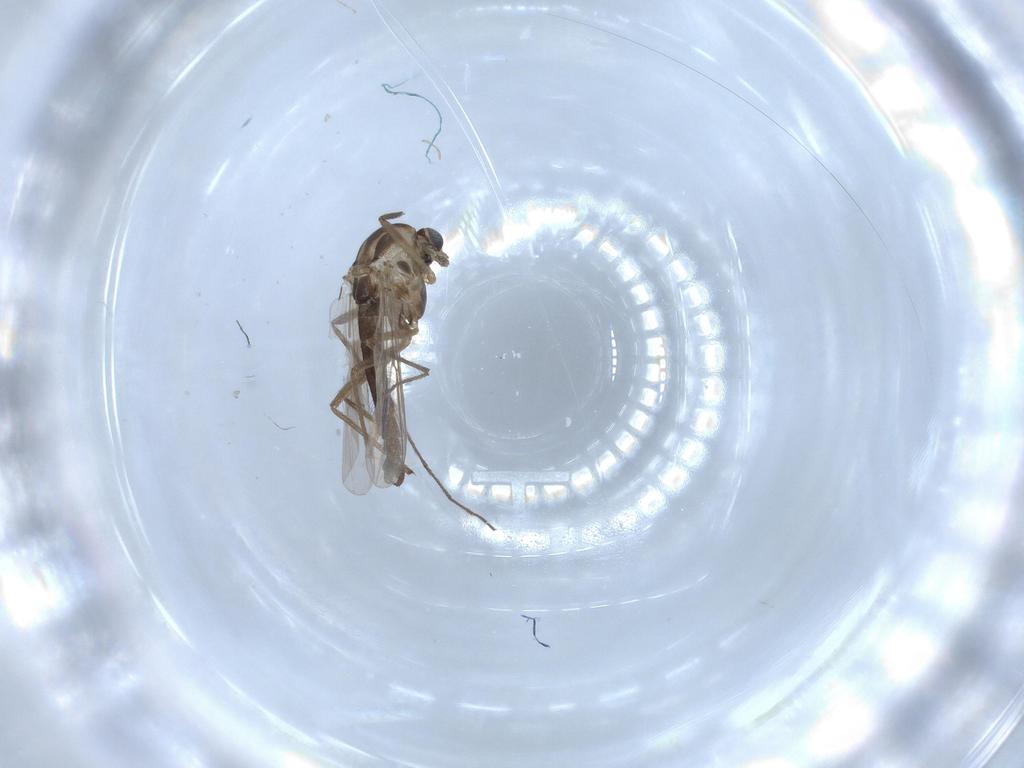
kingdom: Animalia
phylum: Arthropoda
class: Insecta
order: Diptera
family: Chironomidae
